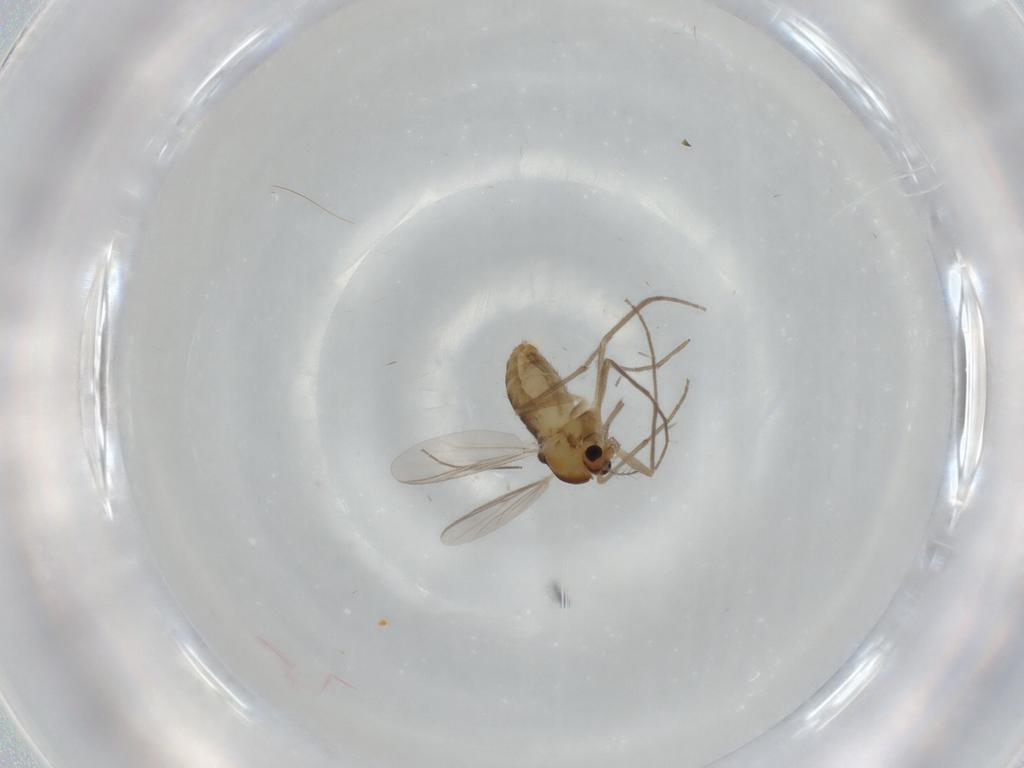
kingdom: Animalia
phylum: Arthropoda
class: Insecta
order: Diptera
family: Chironomidae
